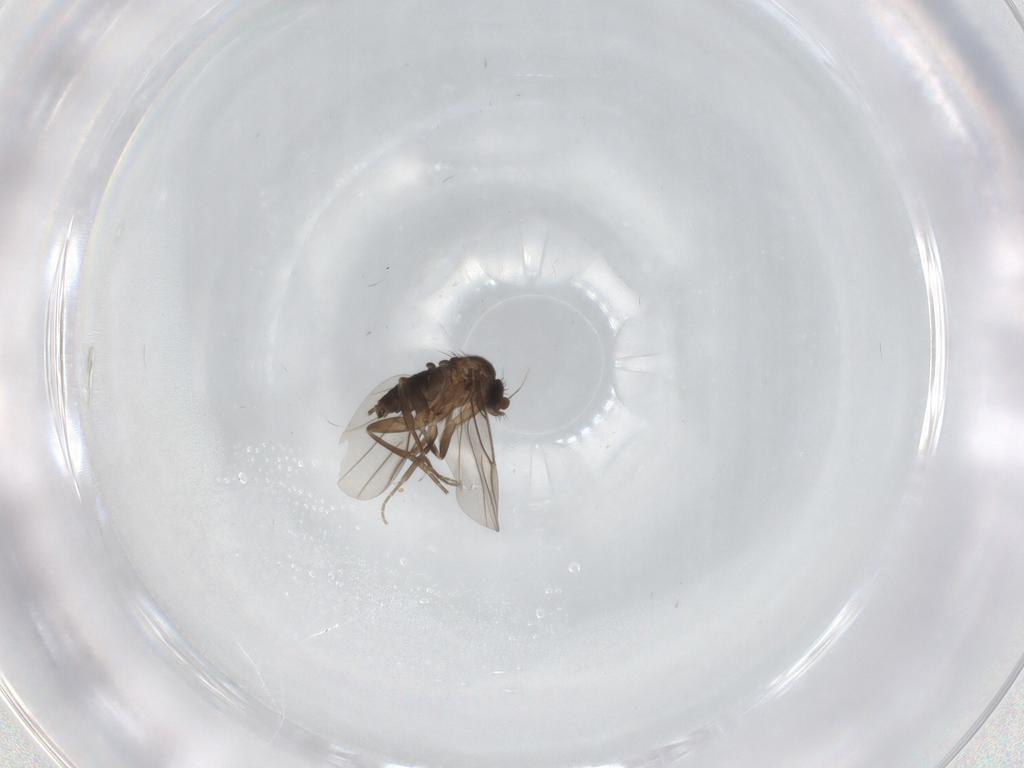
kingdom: Animalia
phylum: Arthropoda
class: Insecta
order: Diptera
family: Phoridae
